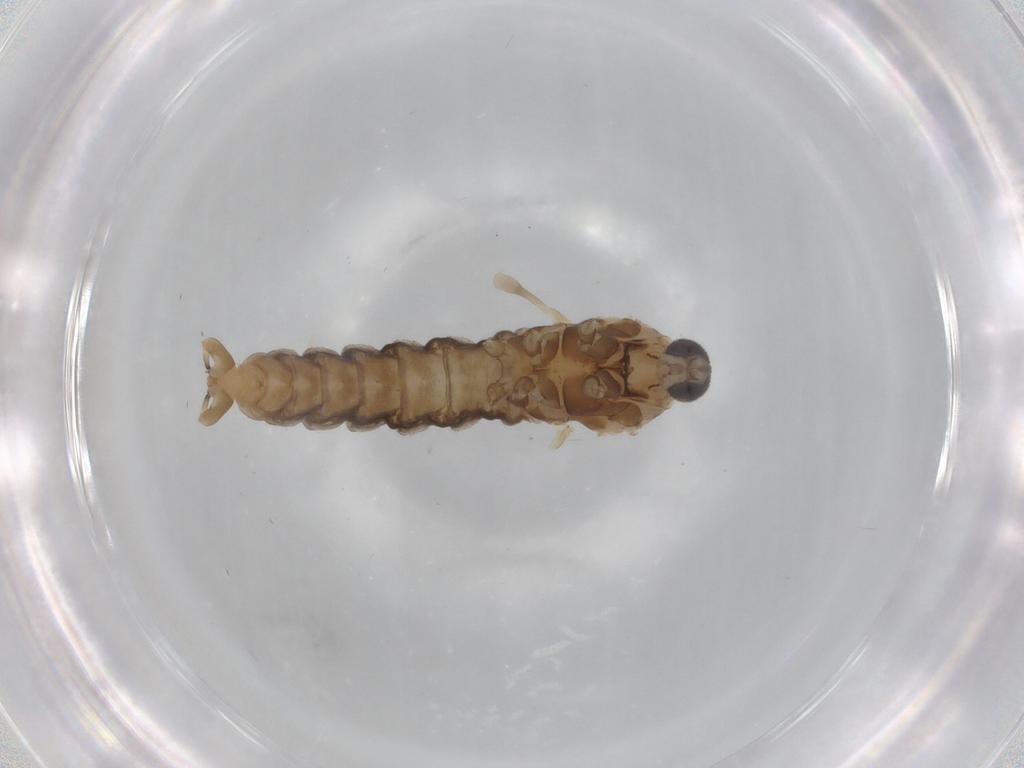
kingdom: Animalia
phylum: Arthropoda
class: Insecta
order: Diptera
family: Cecidomyiidae
